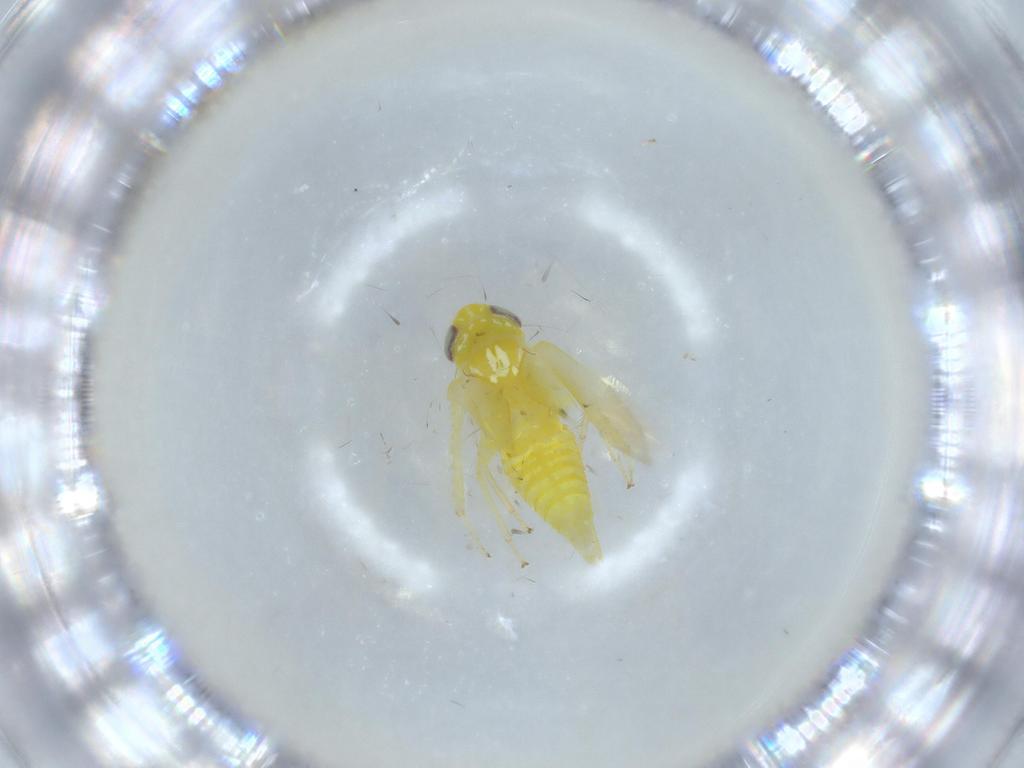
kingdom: Animalia
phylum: Arthropoda
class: Insecta
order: Hemiptera
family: Cicadellidae
